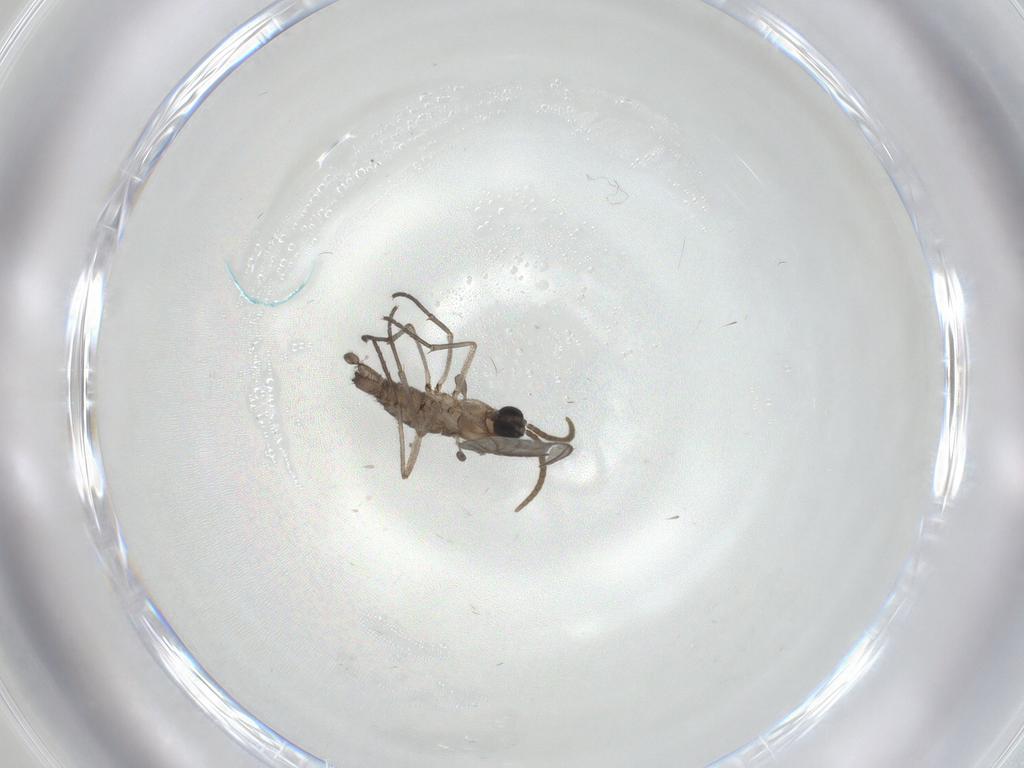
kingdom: Animalia
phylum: Arthropoda
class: Insecta
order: Diptera
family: Cecidomyiidae
